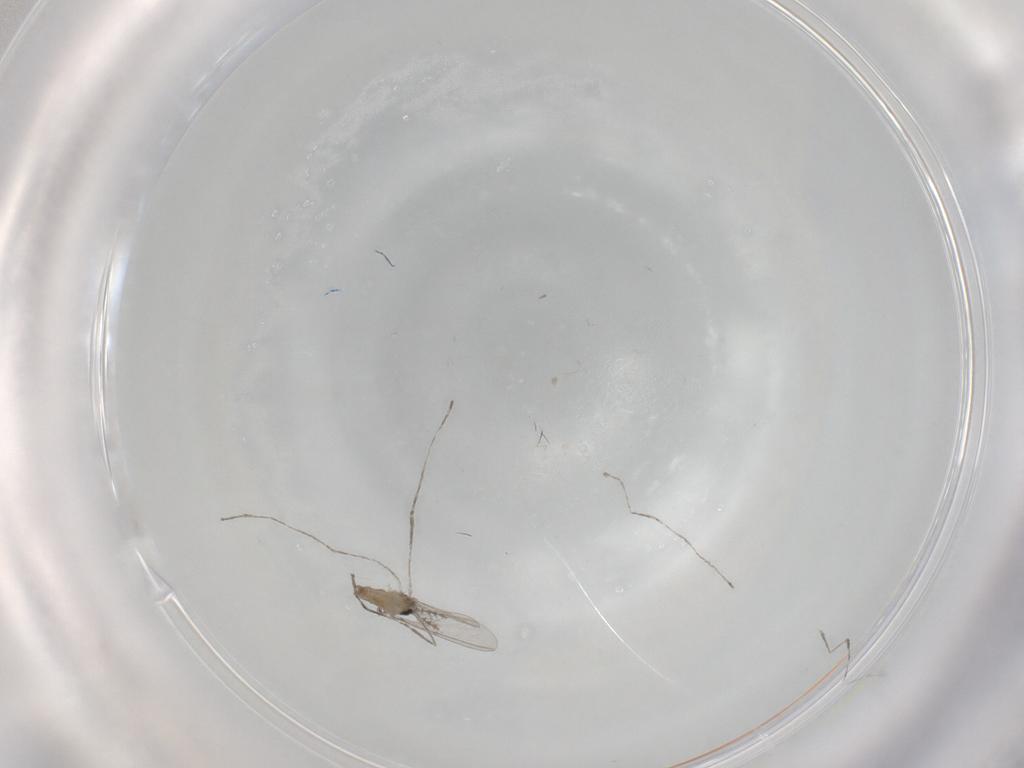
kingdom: Animalia
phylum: Arthropoda
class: Insecta
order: Diptera
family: Cecidomyiidae
